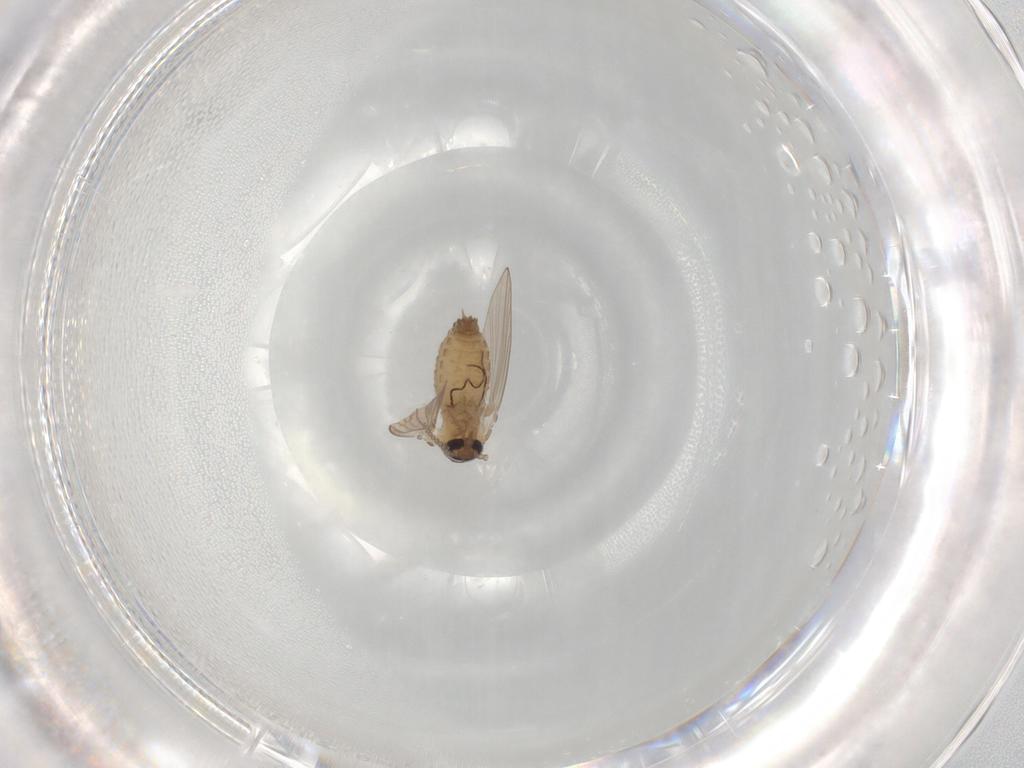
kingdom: Animalia
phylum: Arthropoda
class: Insecta
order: Diptera
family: Psychodidae
